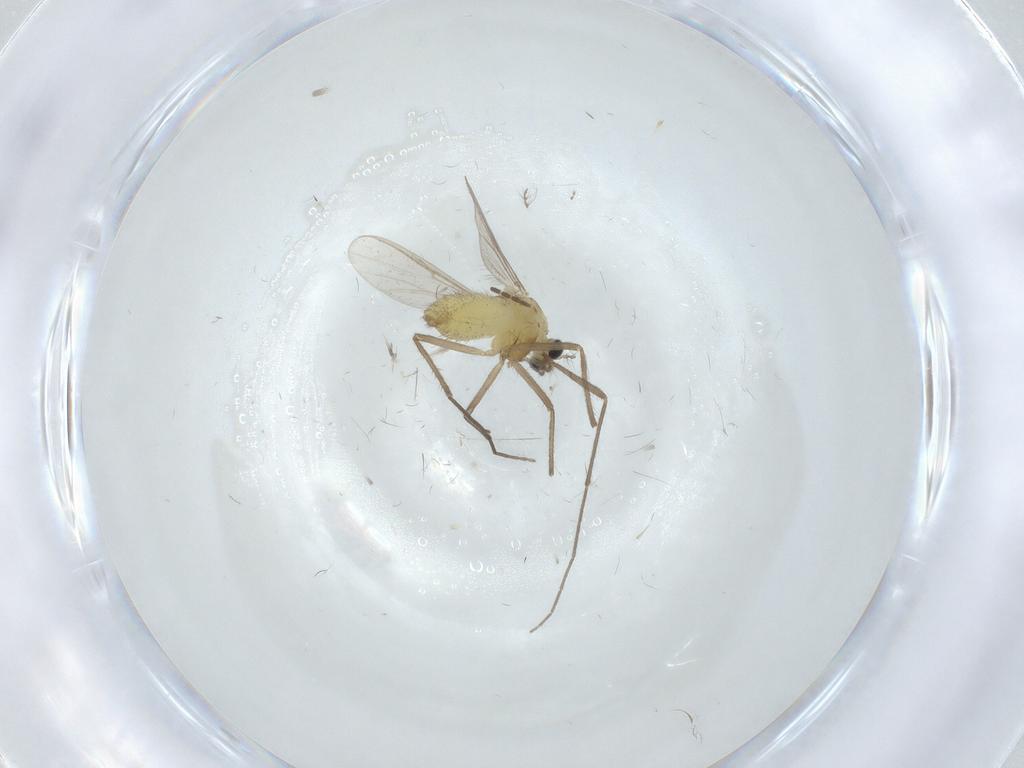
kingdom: Animalia
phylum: Arthropoda
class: Insecta
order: Diptera
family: Chironomidae
